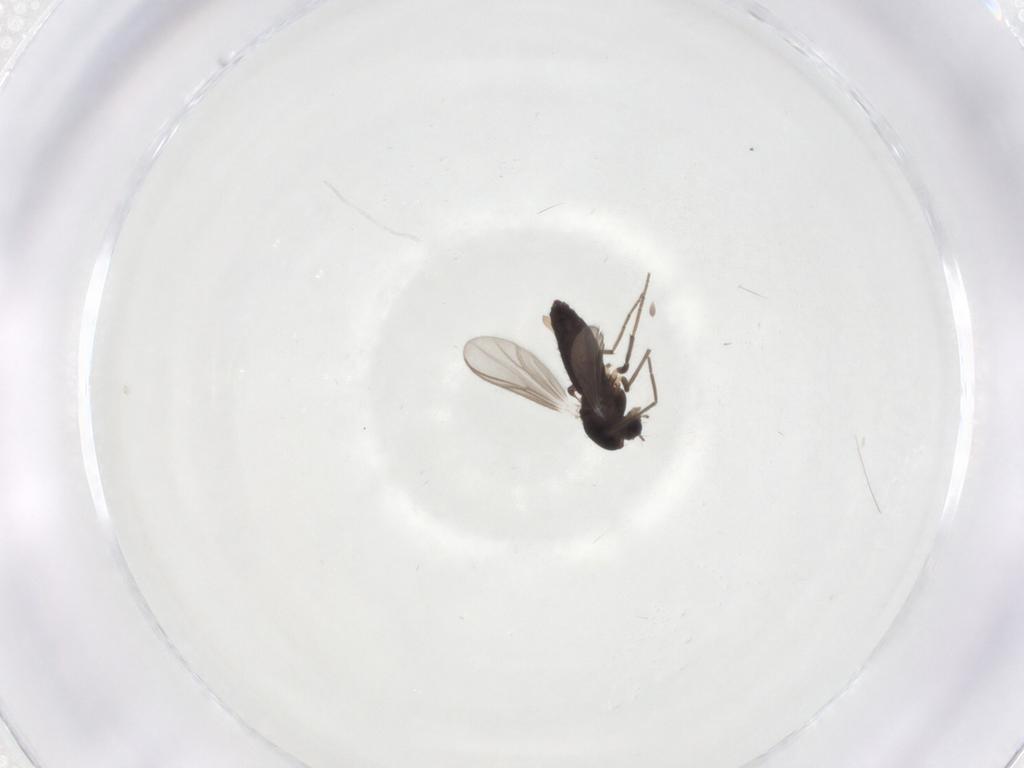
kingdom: Animalia
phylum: Arthropoda
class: Insecta
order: Diptera
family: Chironomidae
